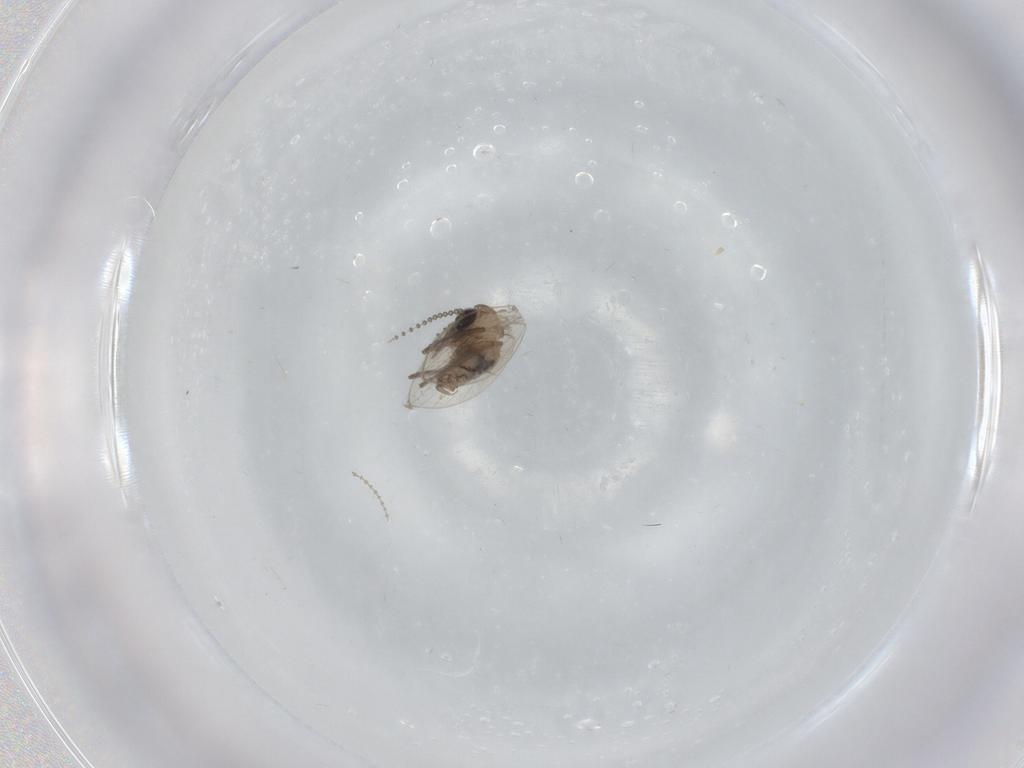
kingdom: Animalia
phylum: Arthropoda
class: Insecta
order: Diptera
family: Psychodidae
